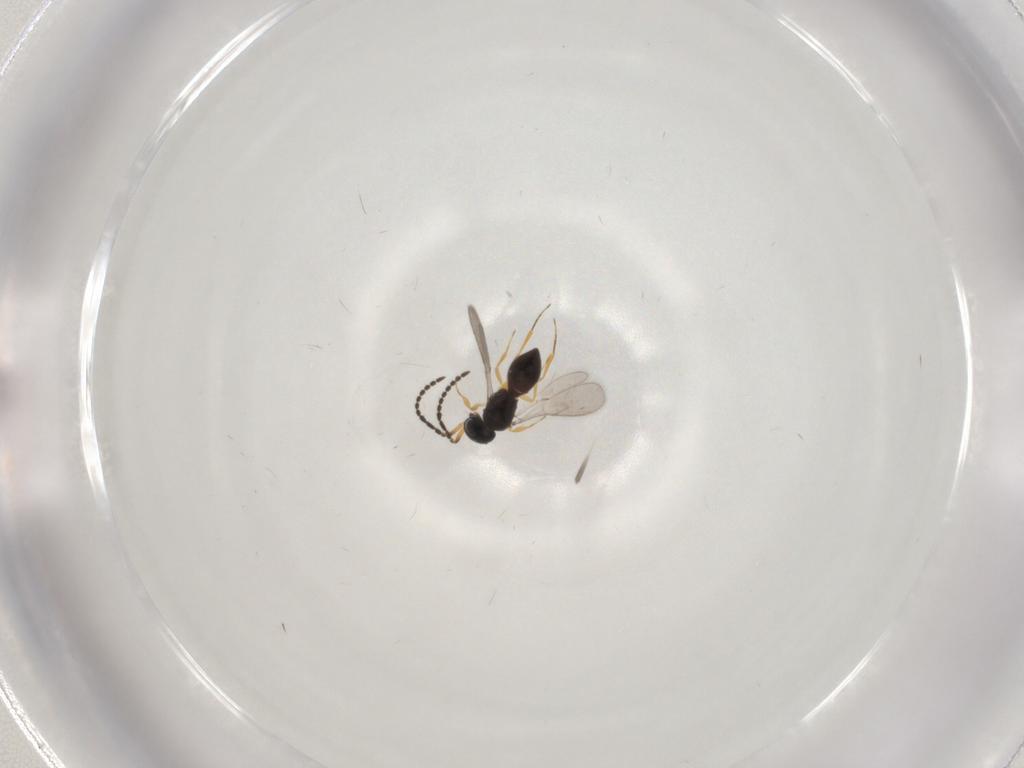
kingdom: Animalia
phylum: Arthropoda
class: Insecta
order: Hymenoptera
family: Scelionidae
